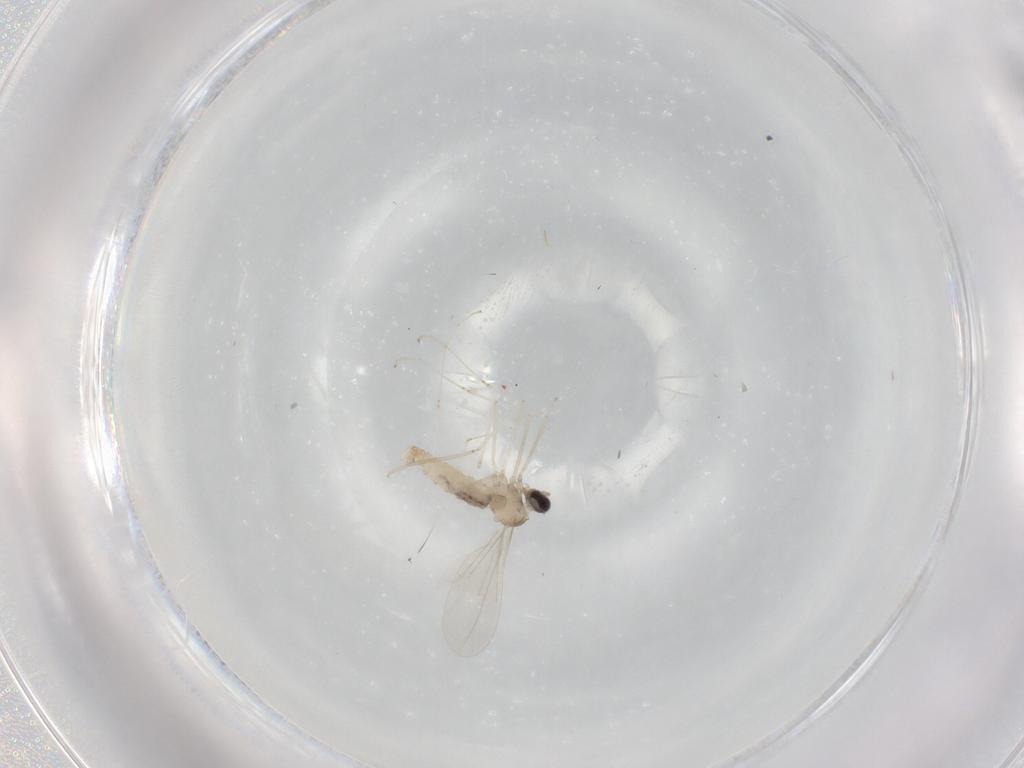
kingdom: Animalia
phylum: Arthropoda
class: Insecta
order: Diptera
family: Cecidomyiidae
